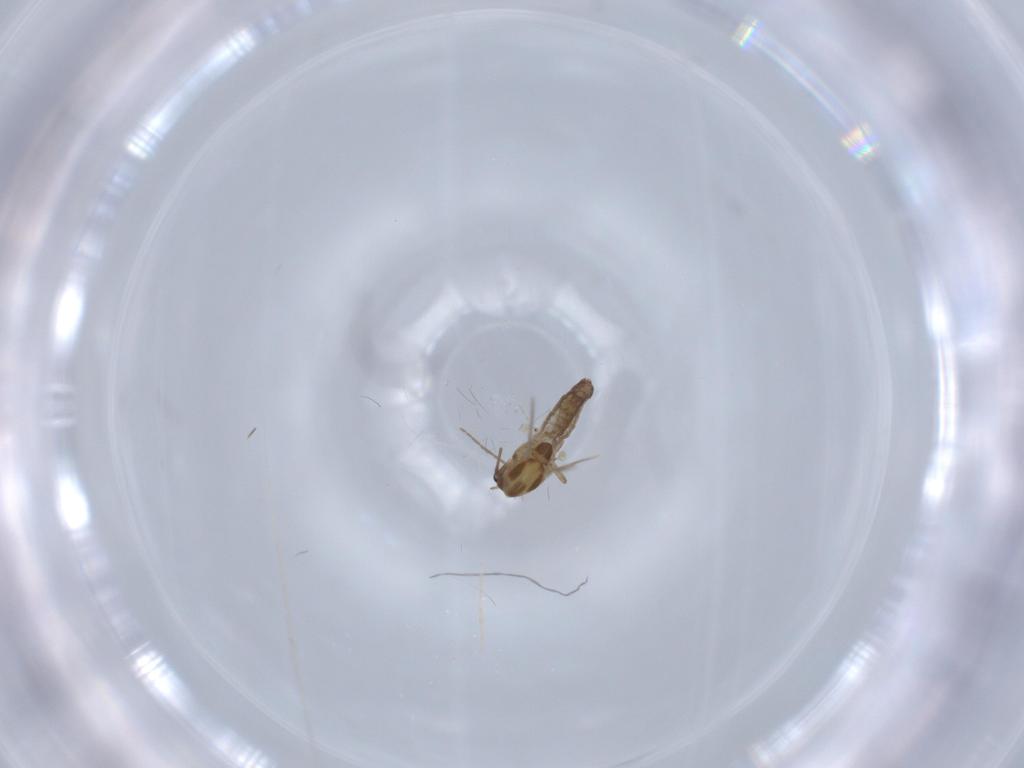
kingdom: Animalia
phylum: Arthropoda
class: Insecta
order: Diptera
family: Chironomidae
